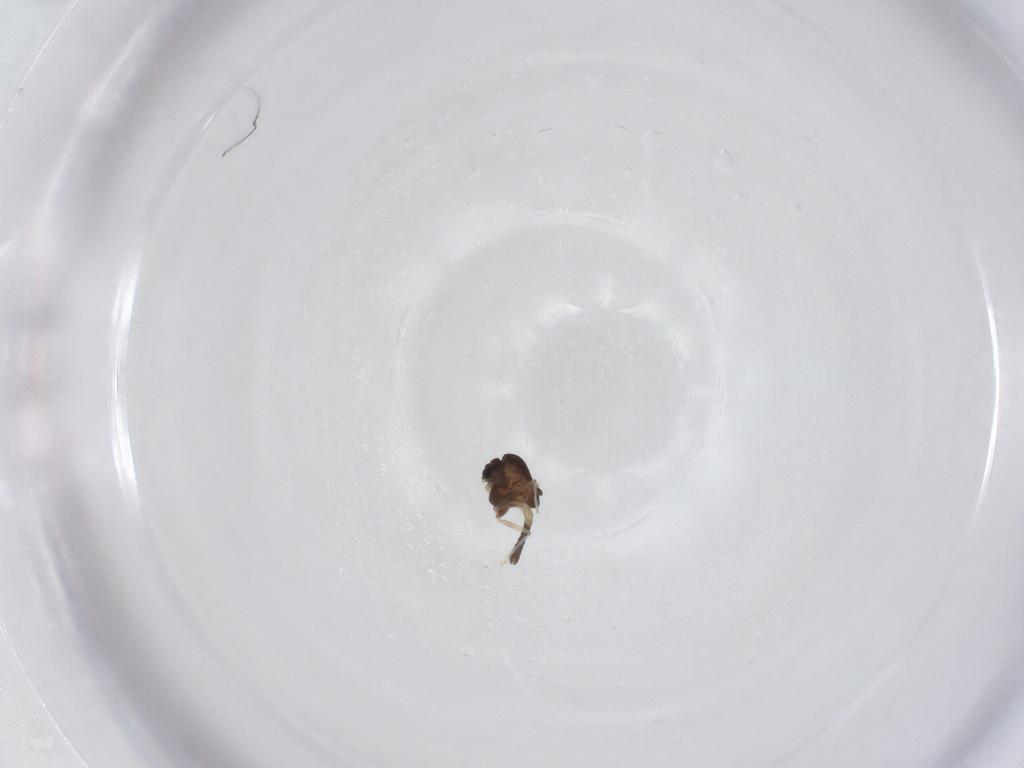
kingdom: Animalia
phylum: Arthropoda
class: Insecta
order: Diptera
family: Chironomidae
